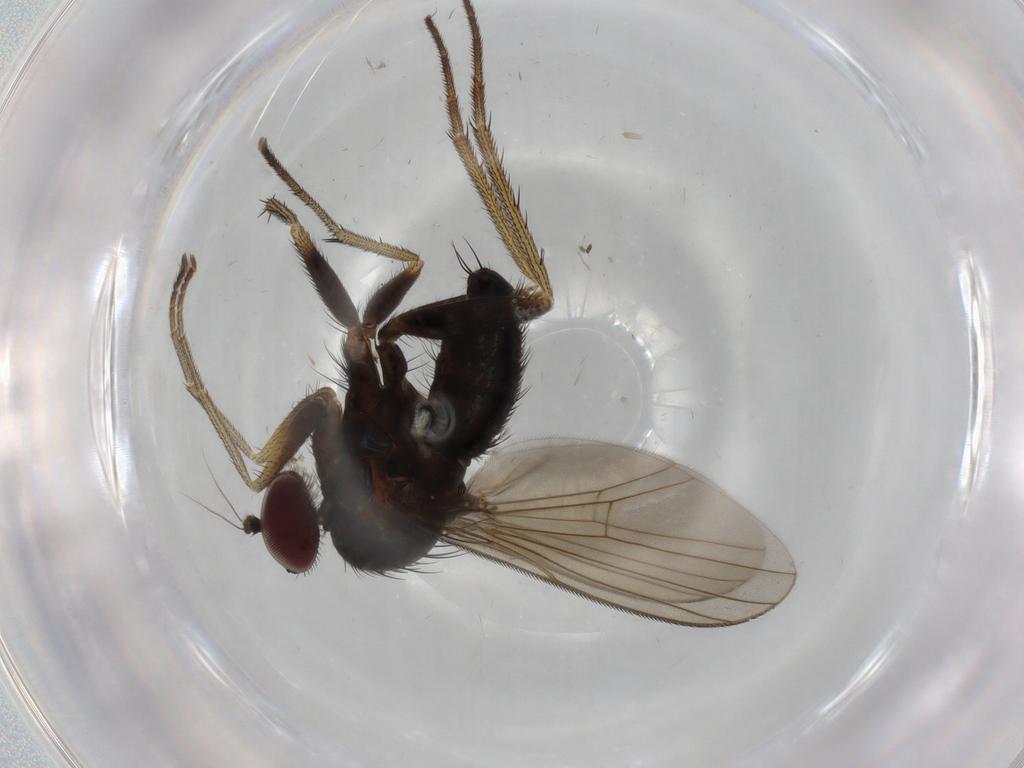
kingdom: Animalia
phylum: Arthropoda
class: Insecta
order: Diptera
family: Dolichopodidae
